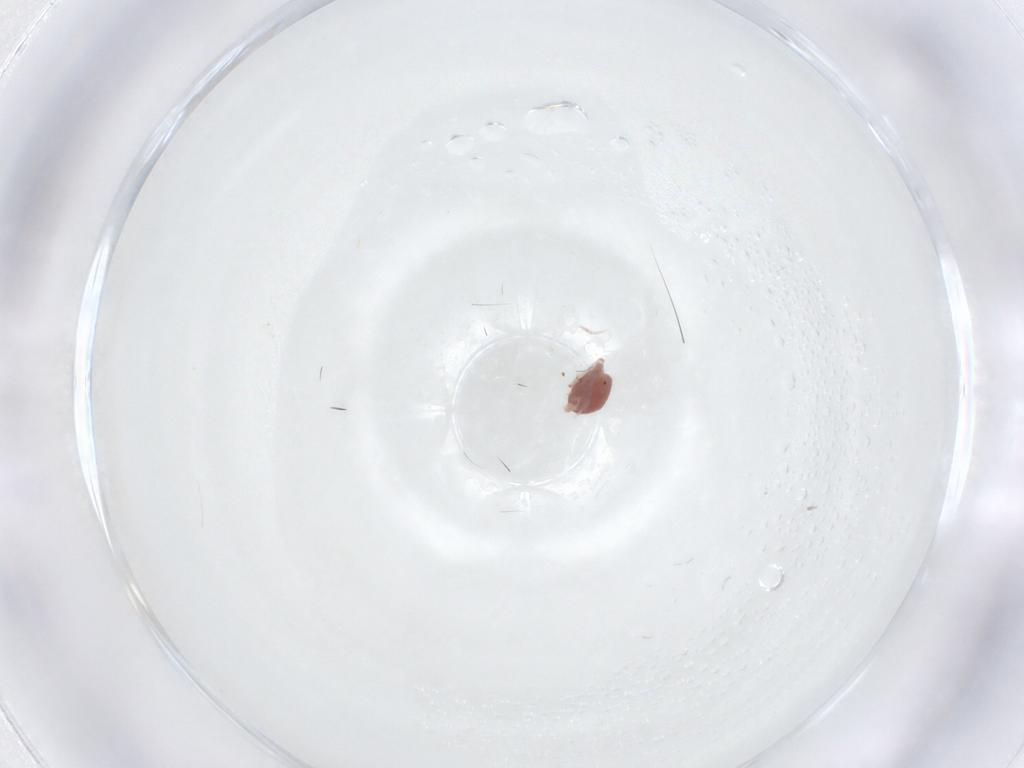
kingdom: Animalia
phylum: Arthropoda
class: Arachnida
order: Trombidiformes
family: Lebertiidae
